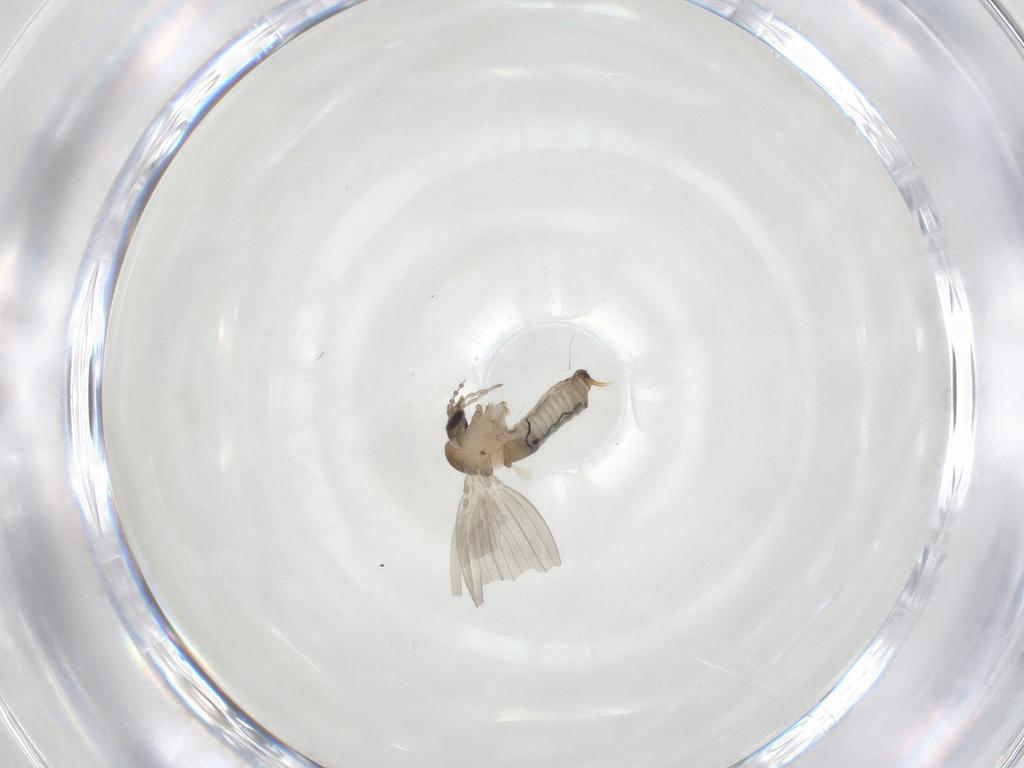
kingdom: Animalia
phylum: Arthropoda
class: Insecta
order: Diptera
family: Psychodidae
